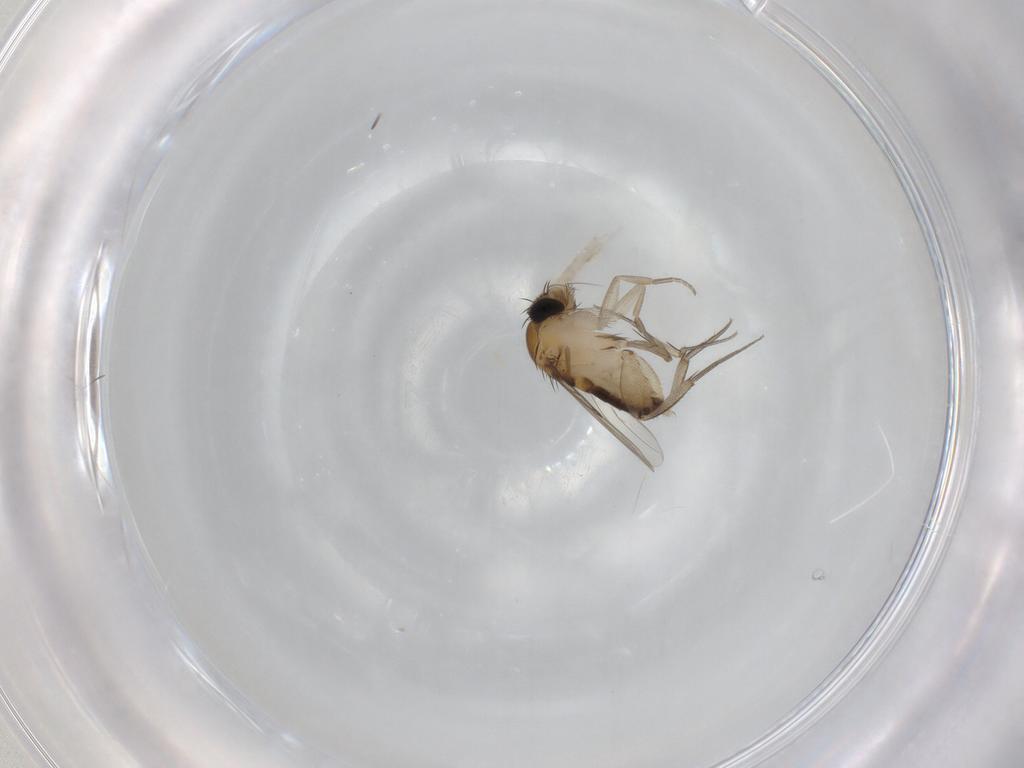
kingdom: Animalia
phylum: Arthropoda
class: Insecta
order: Diptera
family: Phoridae
